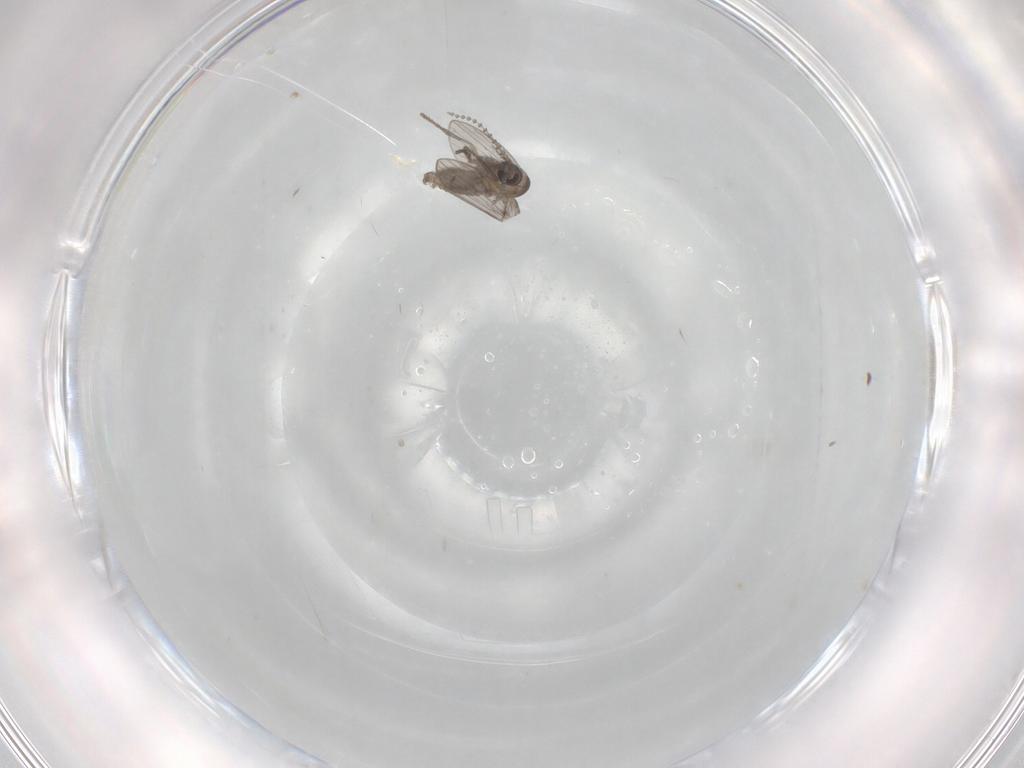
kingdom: Animalia
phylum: Arthropoda
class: Insecta
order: Diptera
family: Psychodidae
